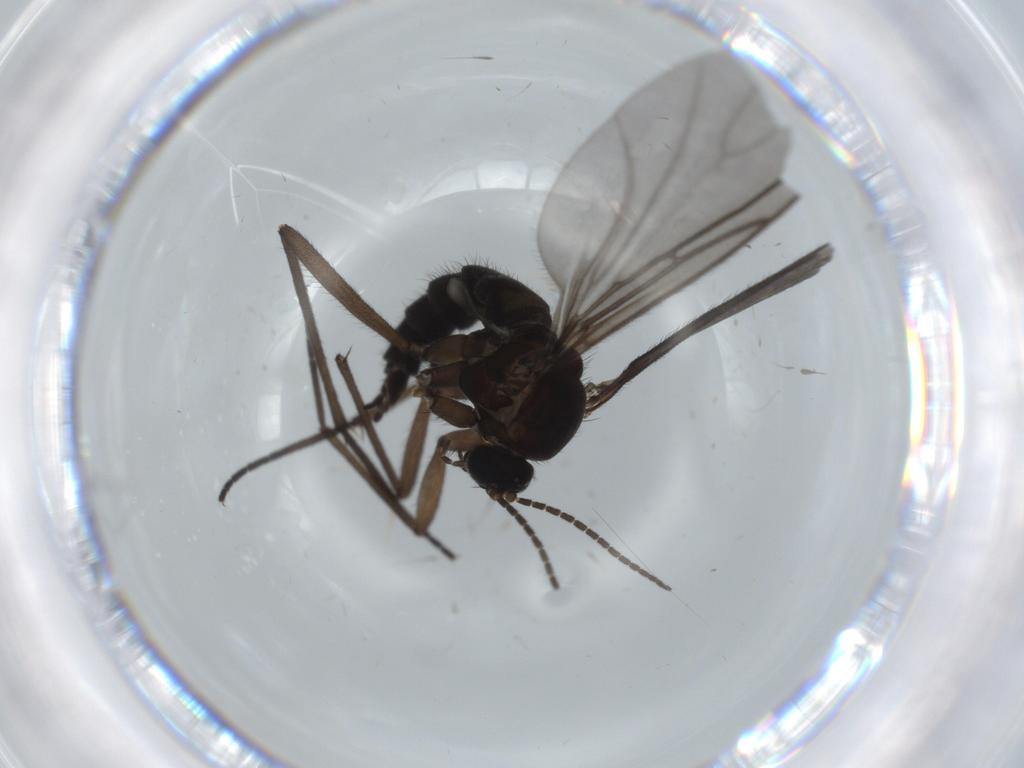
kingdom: Animalia
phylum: Arthropoda
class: Insecta
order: Diptera
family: Sciaridae
